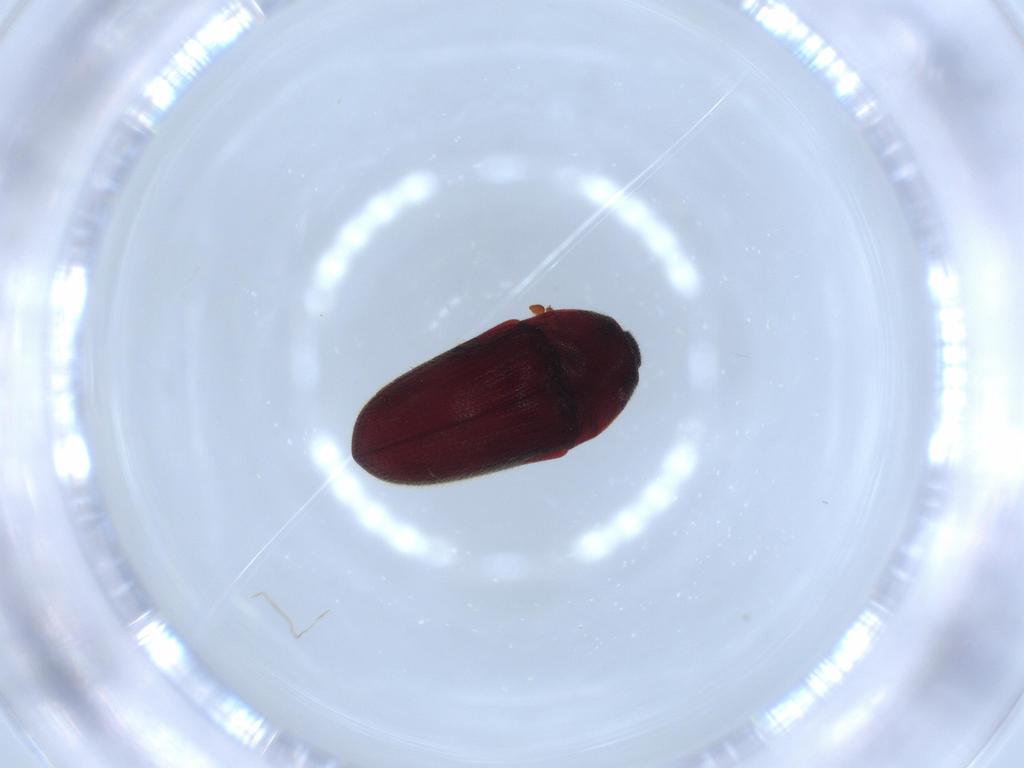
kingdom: Animalia
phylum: Arthropoda
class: Insecta
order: Coleoptera
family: Throscidae
